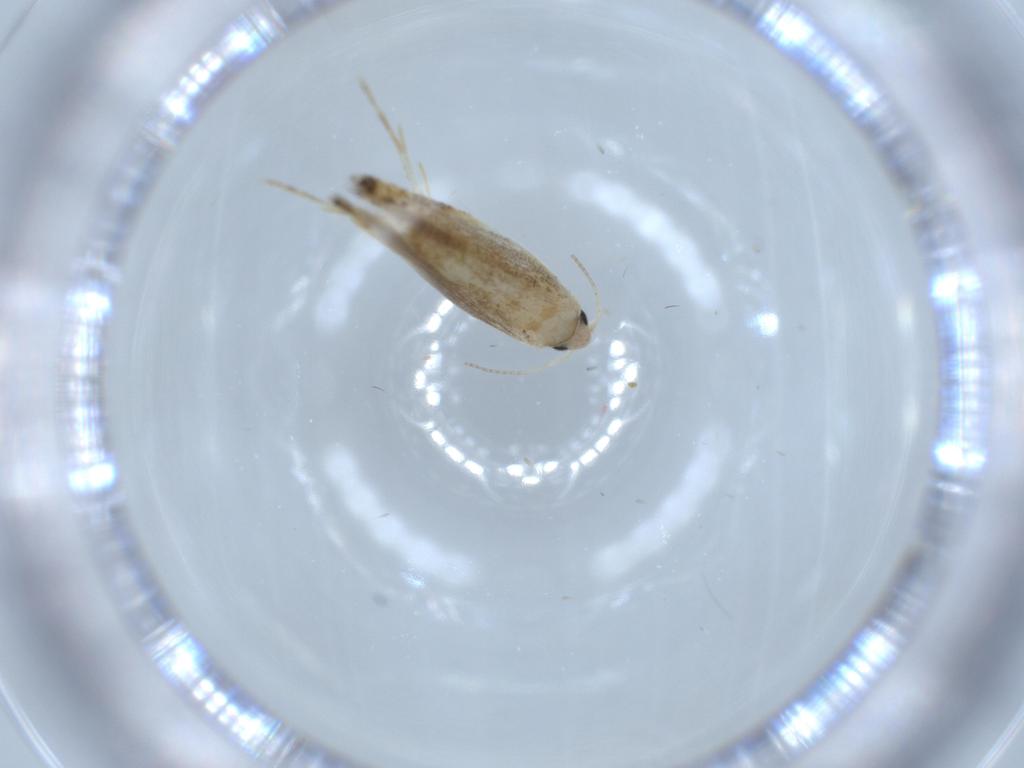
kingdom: Animalia
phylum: Arthropoda
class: Insecta
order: Lepidoptera
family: Bucculatricidae
